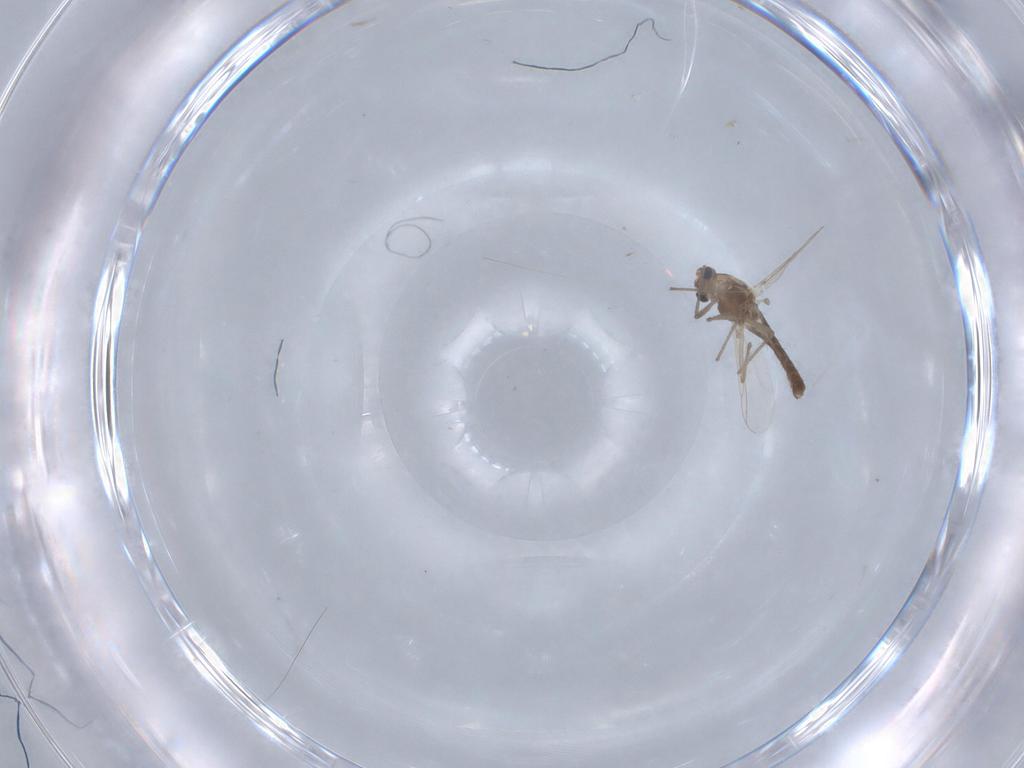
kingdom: Animalia
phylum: Arthropoda
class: Insecta
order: Diptera
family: Chironomidae
